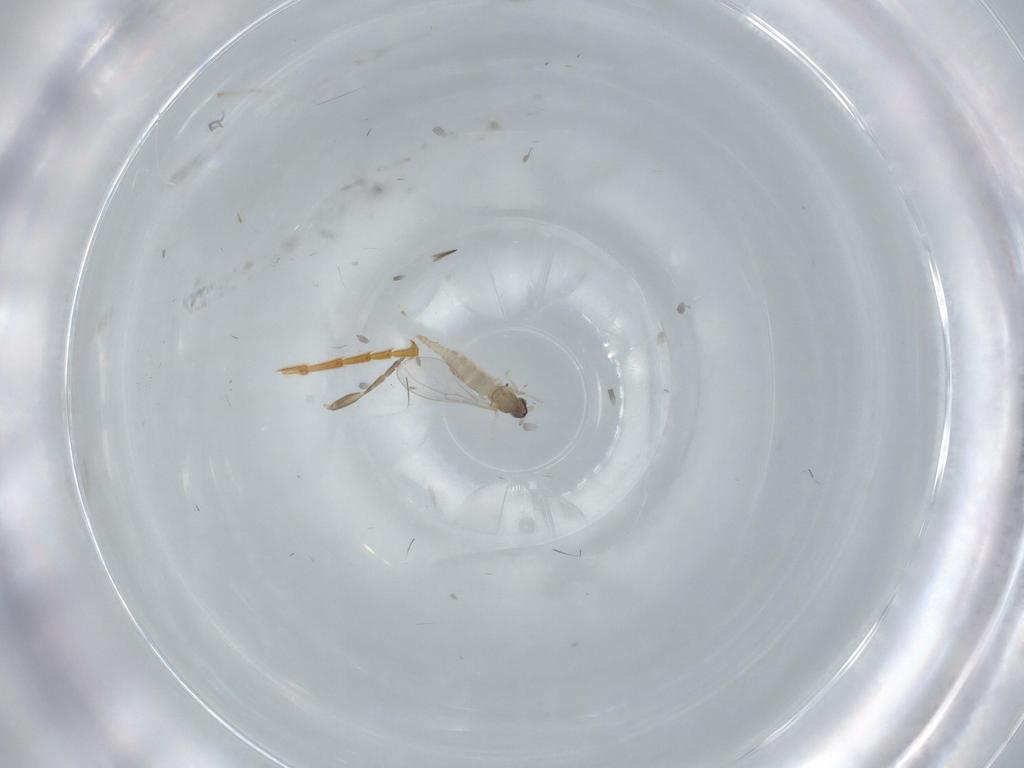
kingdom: Animalia
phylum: Arthropoda
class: Insecta
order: Diptera
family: Cecidomyiidae
